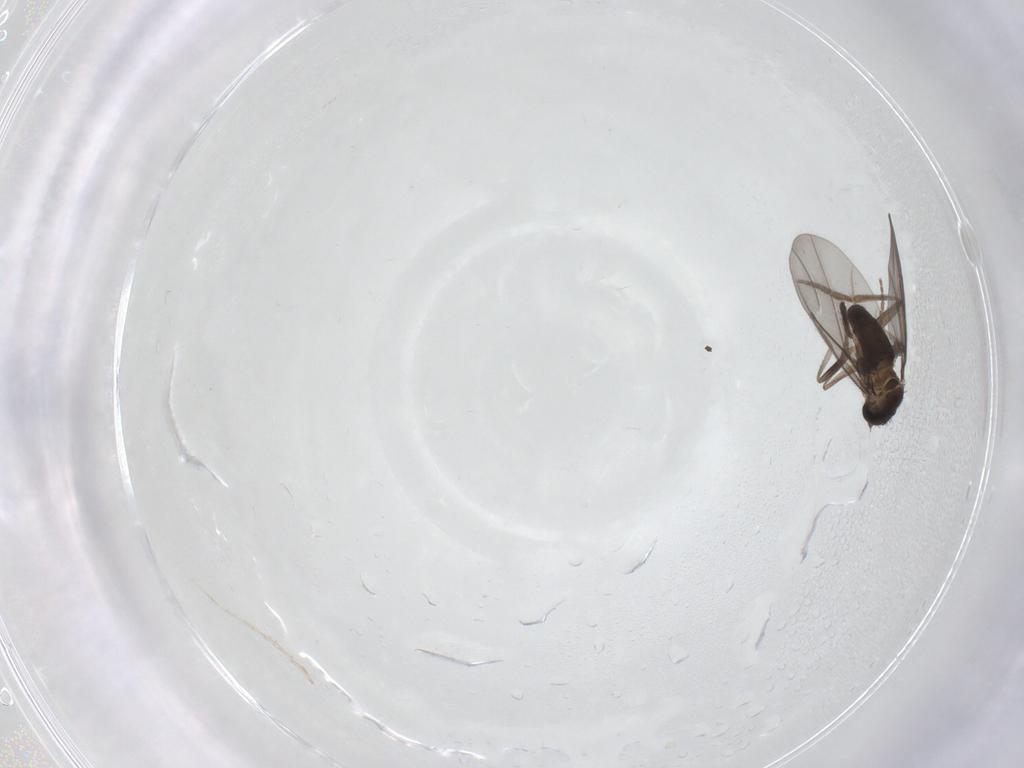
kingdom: Animalia
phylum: Arthropoda
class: Insecta
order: Diptera
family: Phoridae
